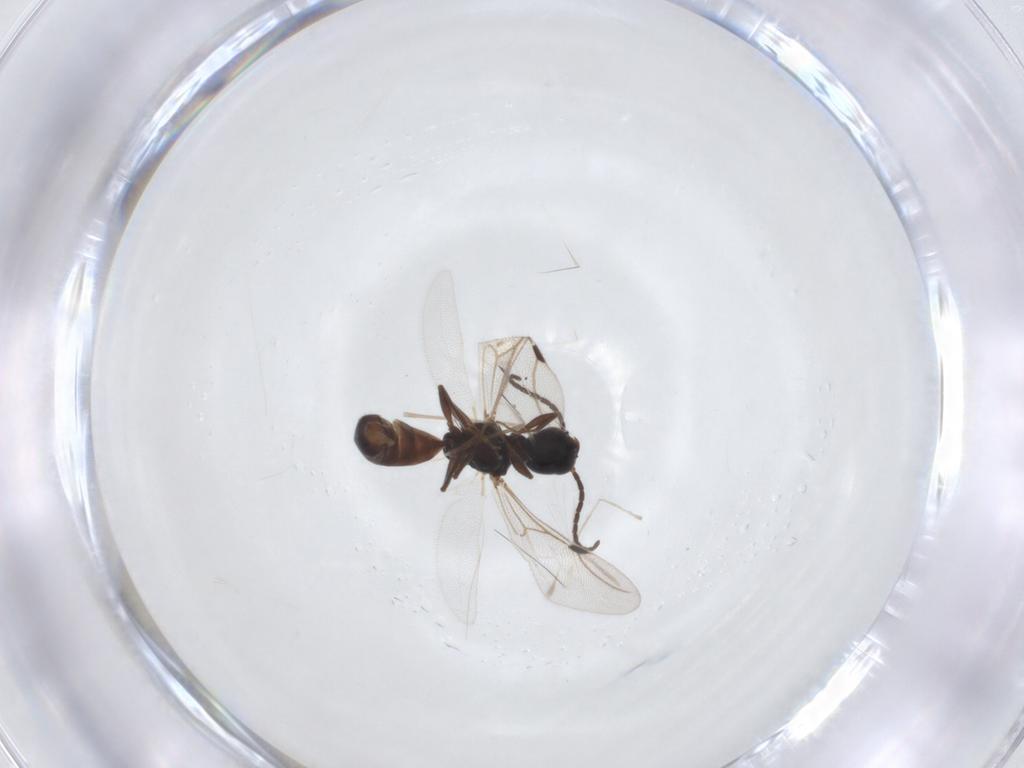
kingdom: Animalia
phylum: Arthropoda
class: Insecta
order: Hymenoptera
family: Bethylidae
